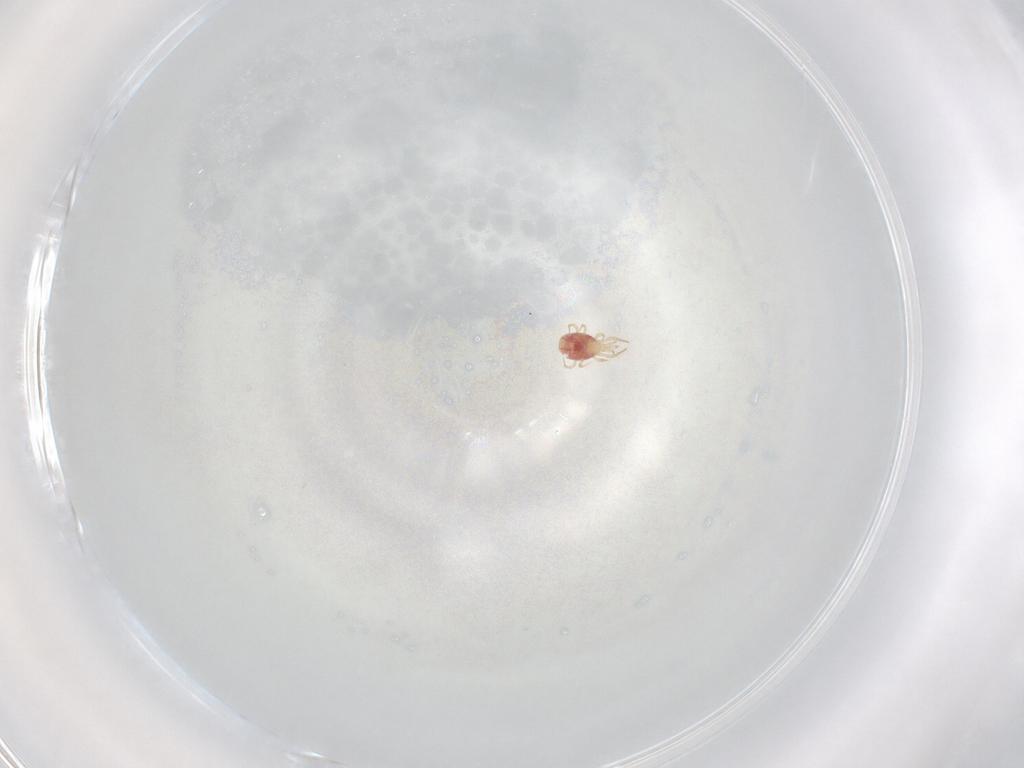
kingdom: Animalia
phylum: Arthropoda
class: Arachnida
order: Mesostigmata
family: Phytoseiidae
